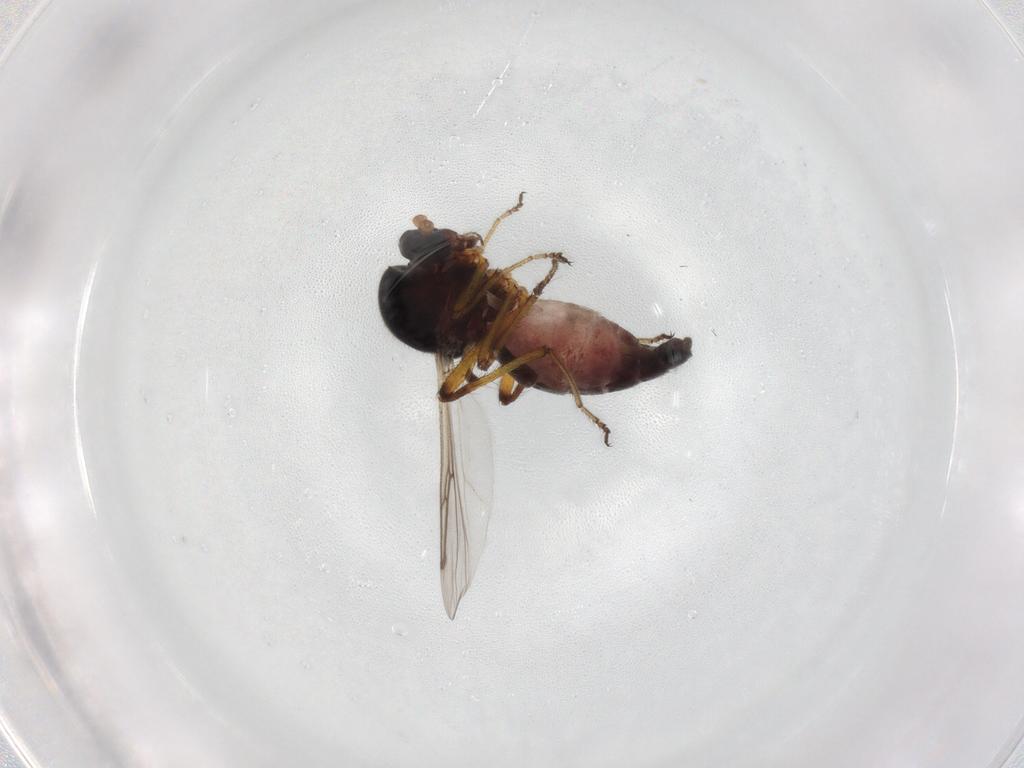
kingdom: Animalia
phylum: Arthropoda
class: Insecta
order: Diptera
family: Ceratopogonidae
